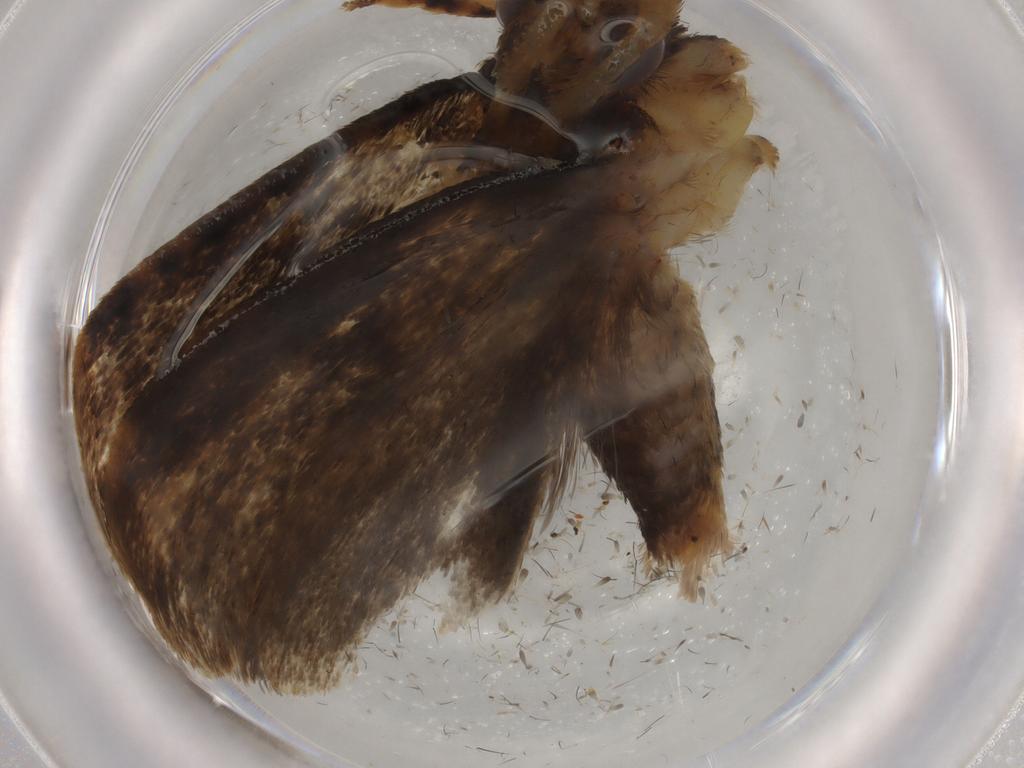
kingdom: Animalia
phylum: Arthropoda
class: Insecta
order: Lepidoptera
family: Tineidae
